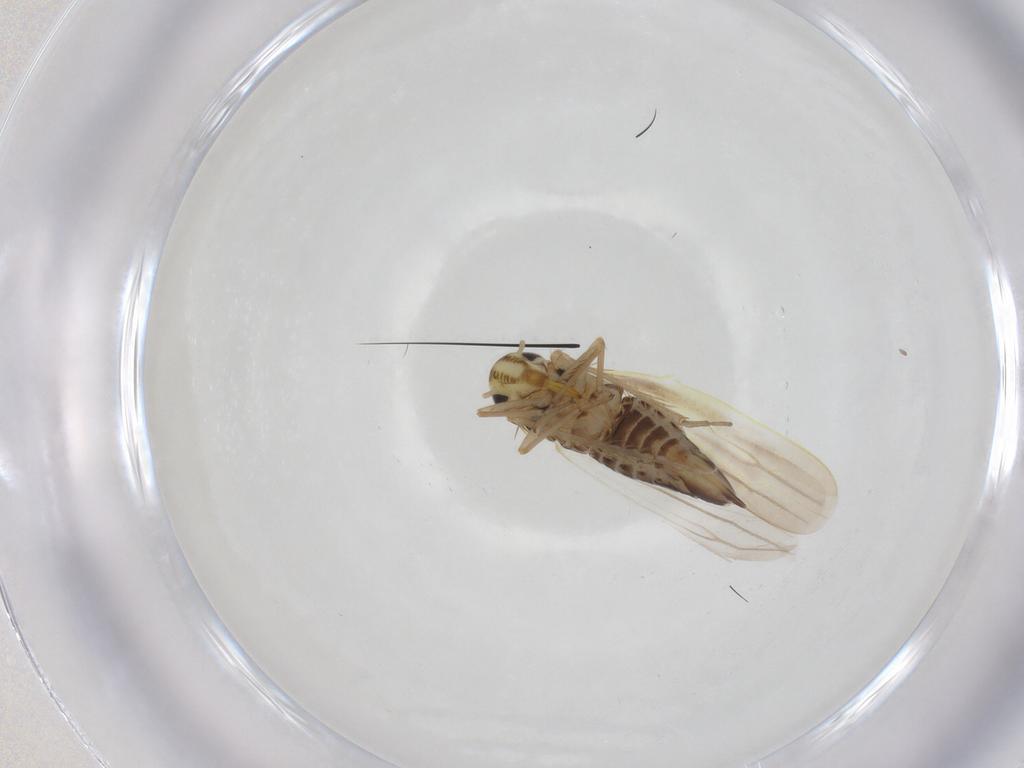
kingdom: Animalia
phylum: Arthropoda
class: Insecta
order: Hemiptera
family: Cicadellidae
